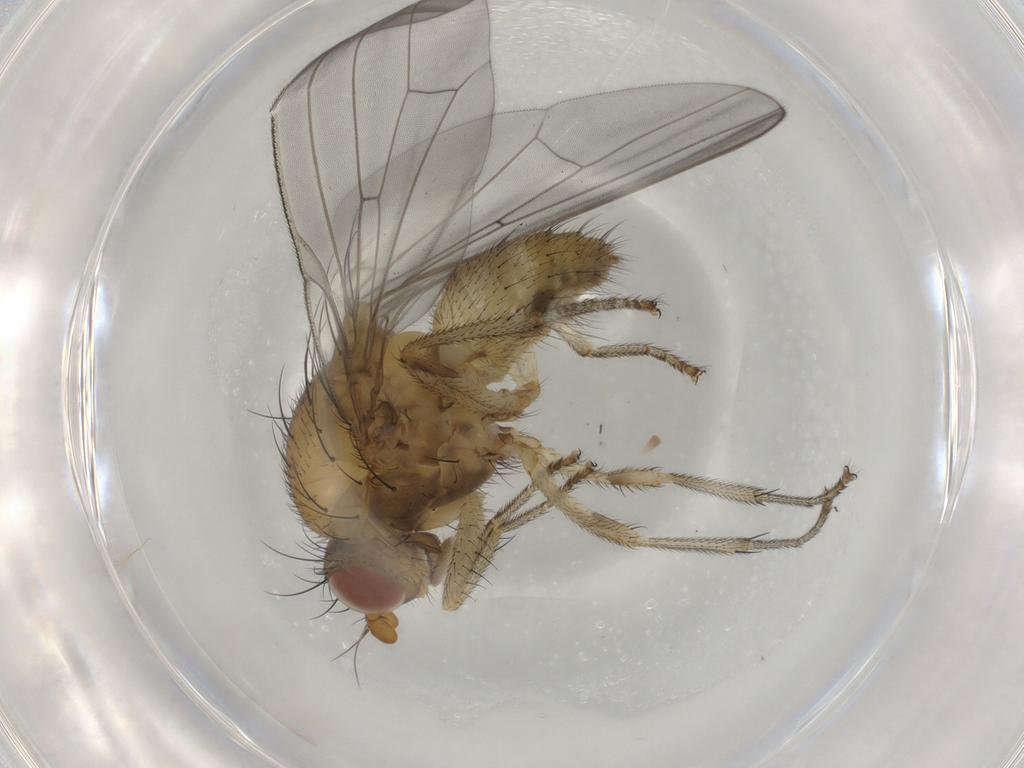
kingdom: Animalia
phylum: Arthropoda
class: Insecta
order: Diptera
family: Lauxaniidae
